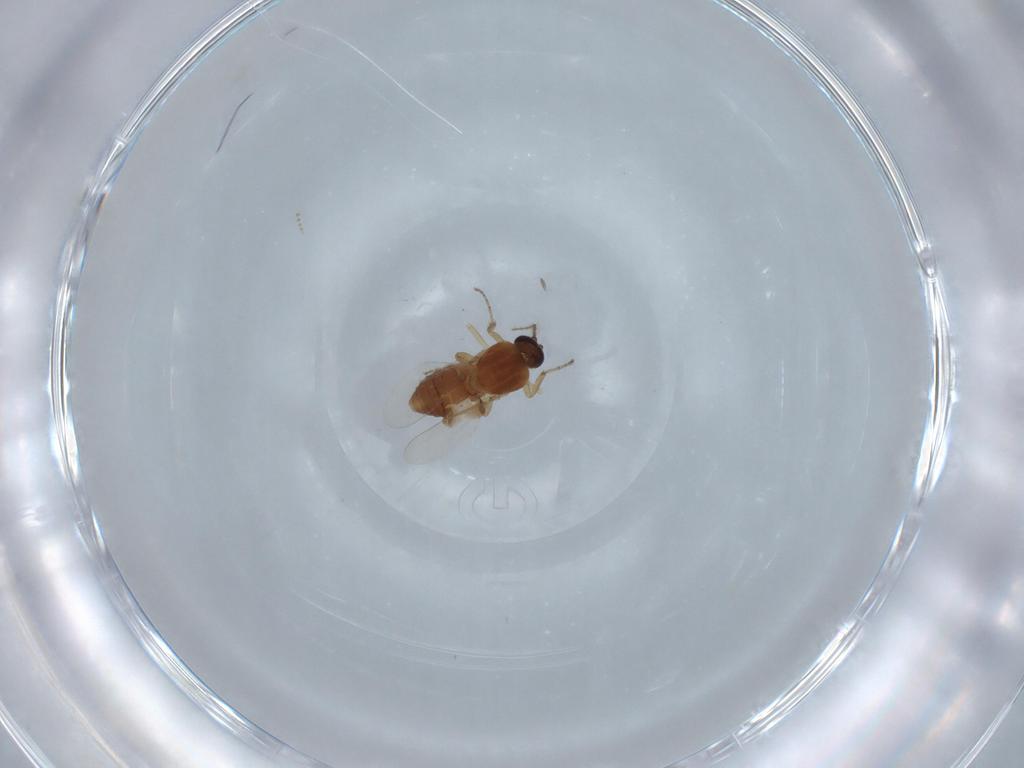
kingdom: Animalia
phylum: Arthropoda
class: Insecta
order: Diptera
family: Ceratopogonidae
